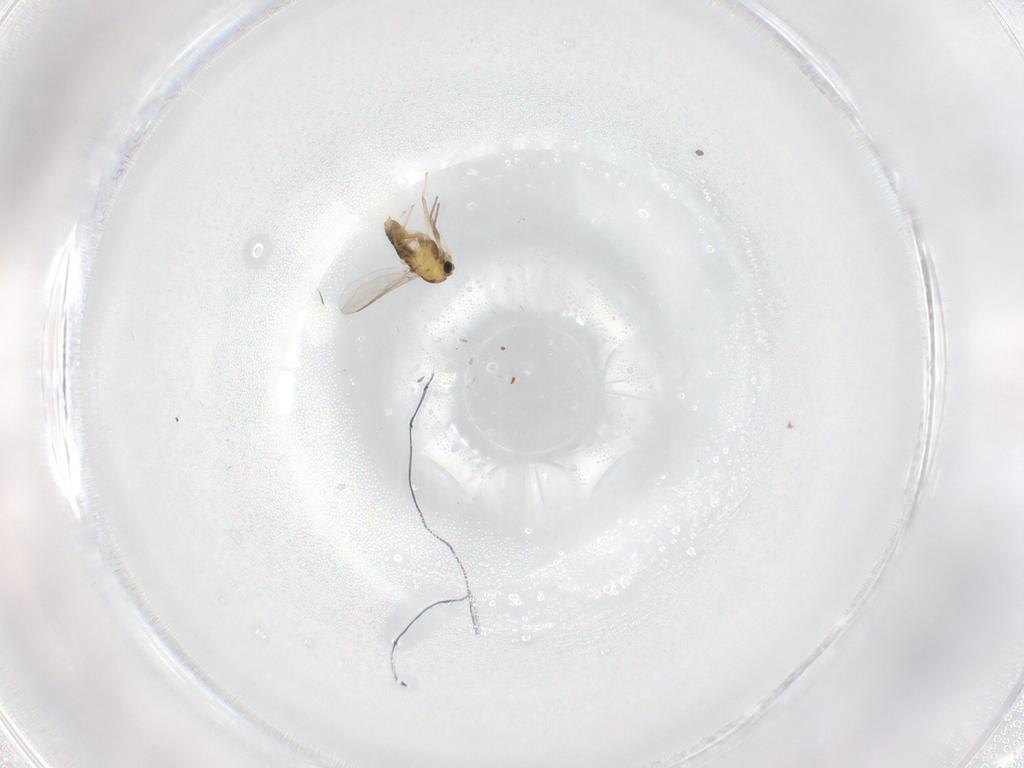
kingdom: Animalia
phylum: Arthropoda
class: Insecta
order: Diptera
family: Chironomidae
